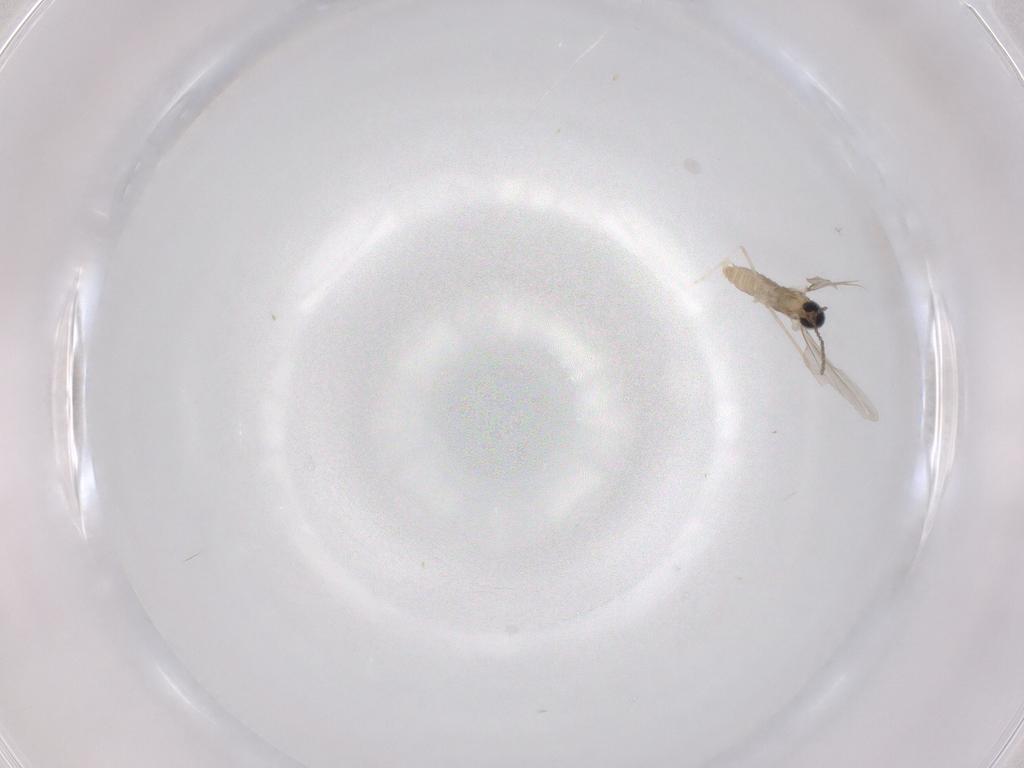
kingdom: Animalia
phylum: Arthropoda
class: Insecta
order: Diptera
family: Cecidomyiidae
